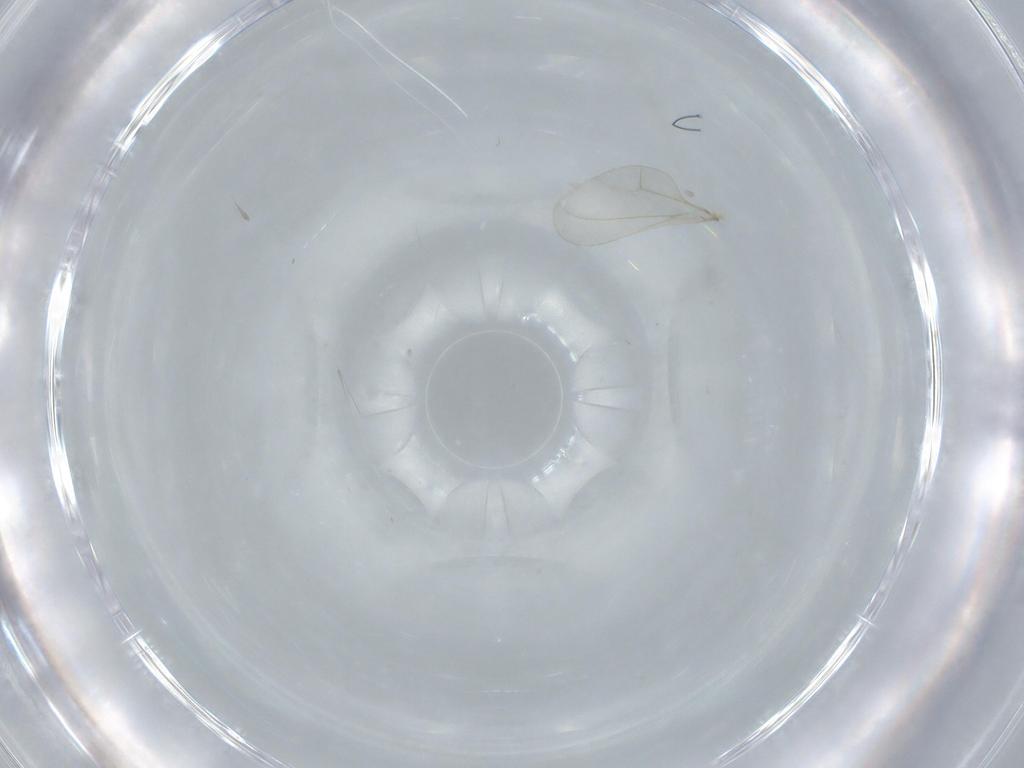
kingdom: Animalia
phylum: Arthropoda
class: Insecta
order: Diptera
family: Cecidomyiidae
